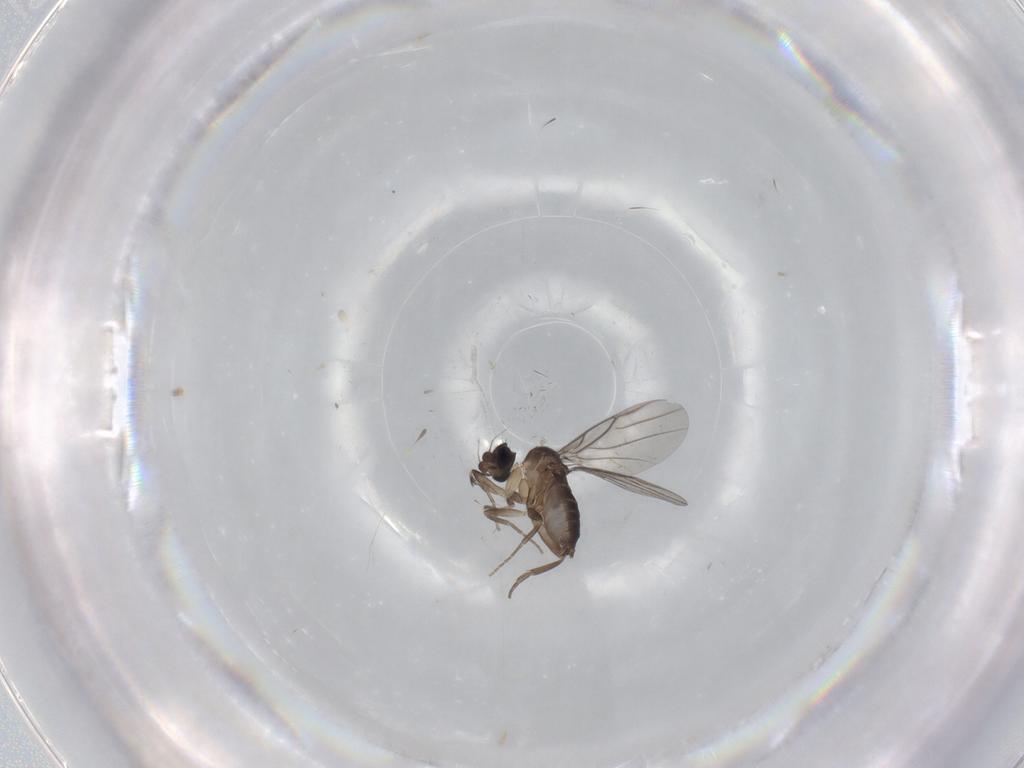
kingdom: Animalia
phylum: Arthropoda
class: Insecta
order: Diptera
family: Phoridae
